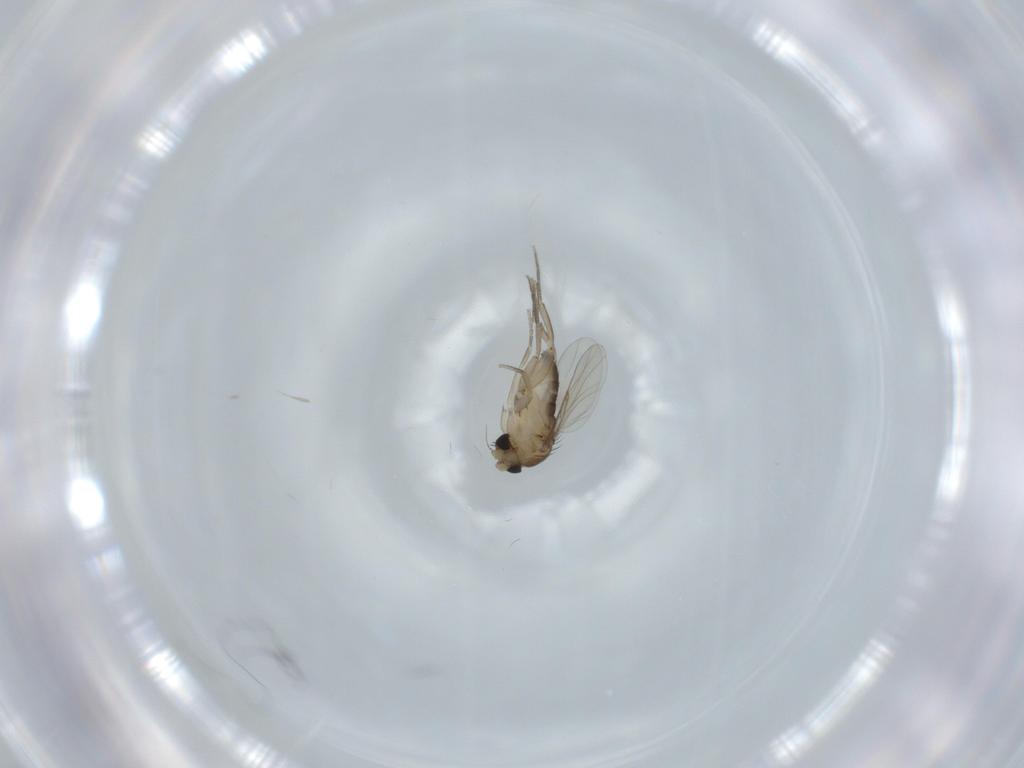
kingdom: Animalia
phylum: Arthropoda
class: Insecta
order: Diptera
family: Phoridae
